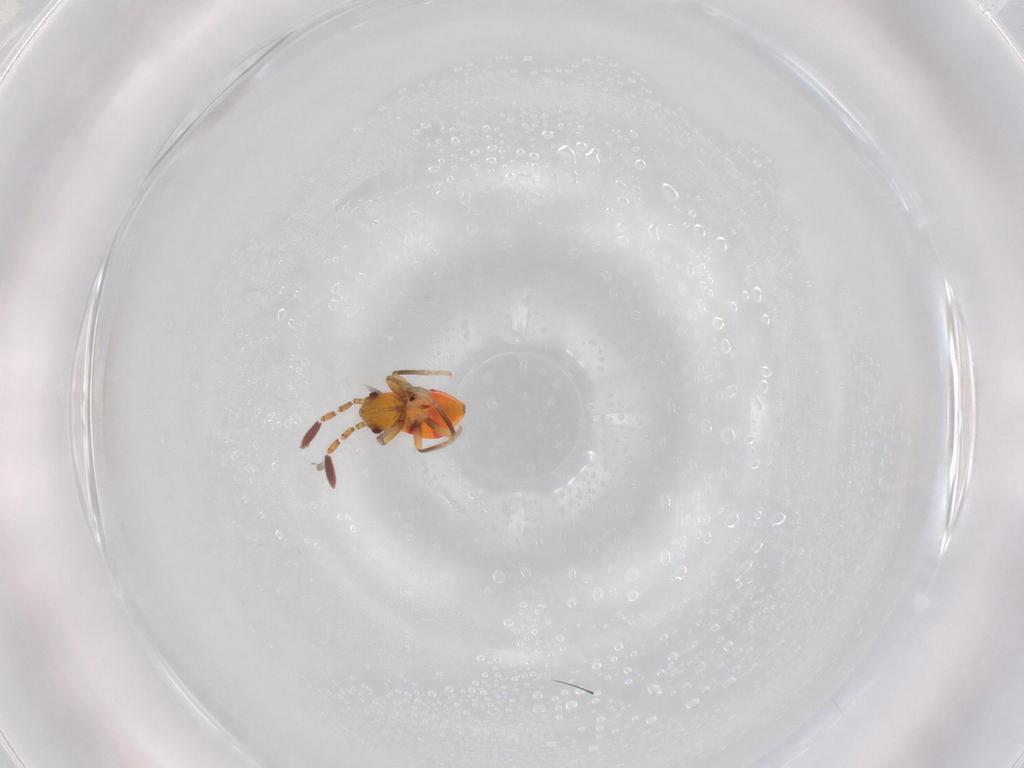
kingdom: Animalia
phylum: Arthropoda
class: Insecta
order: Hemiptera
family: Rhyparochromidae
